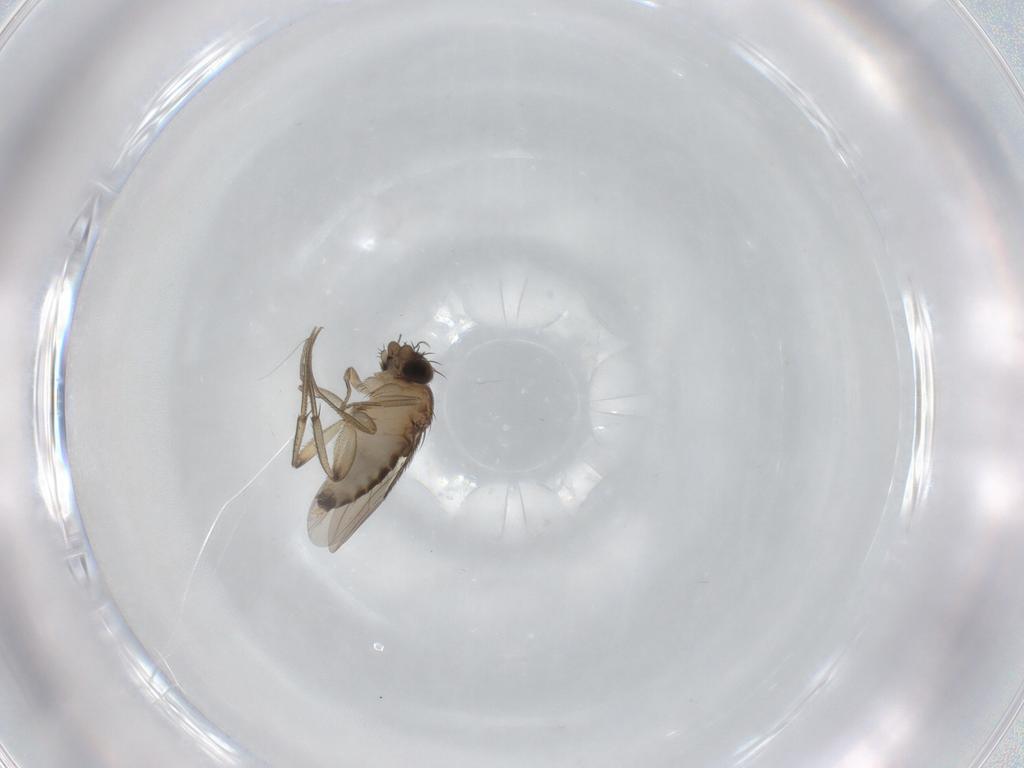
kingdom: Animalia
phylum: Arthropoda
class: Insecta
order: Diptera
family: Phoridae
